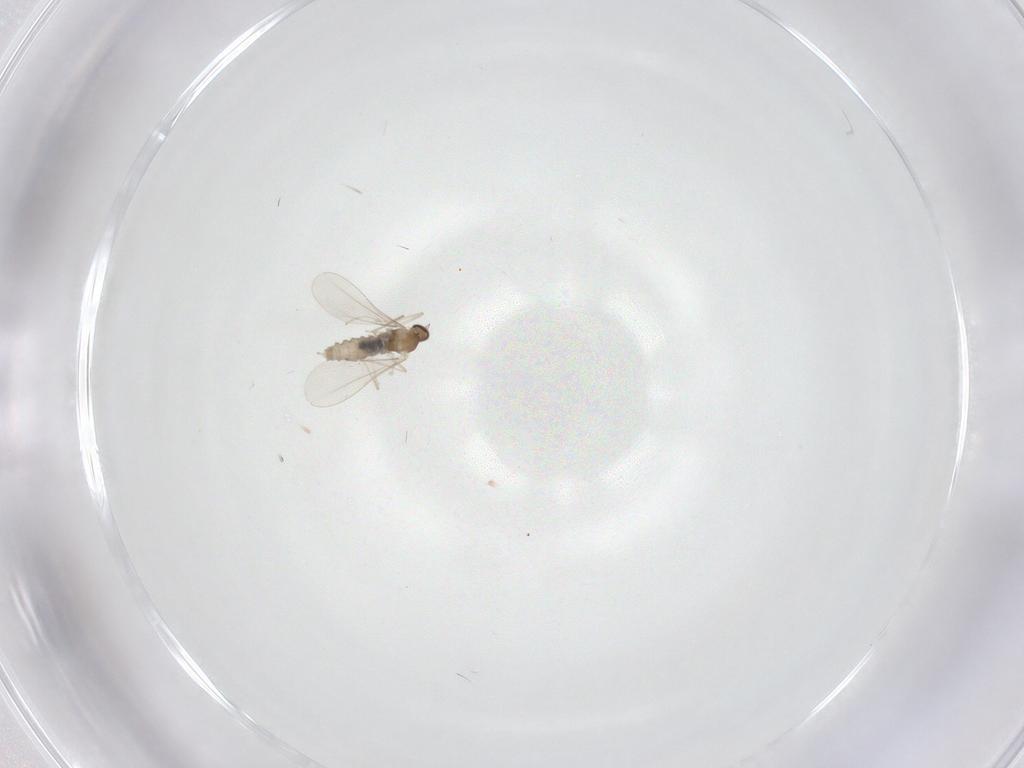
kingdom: Animalia
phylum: Arthropoda
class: Insecta
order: Diptera
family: Cecidomyiidae
